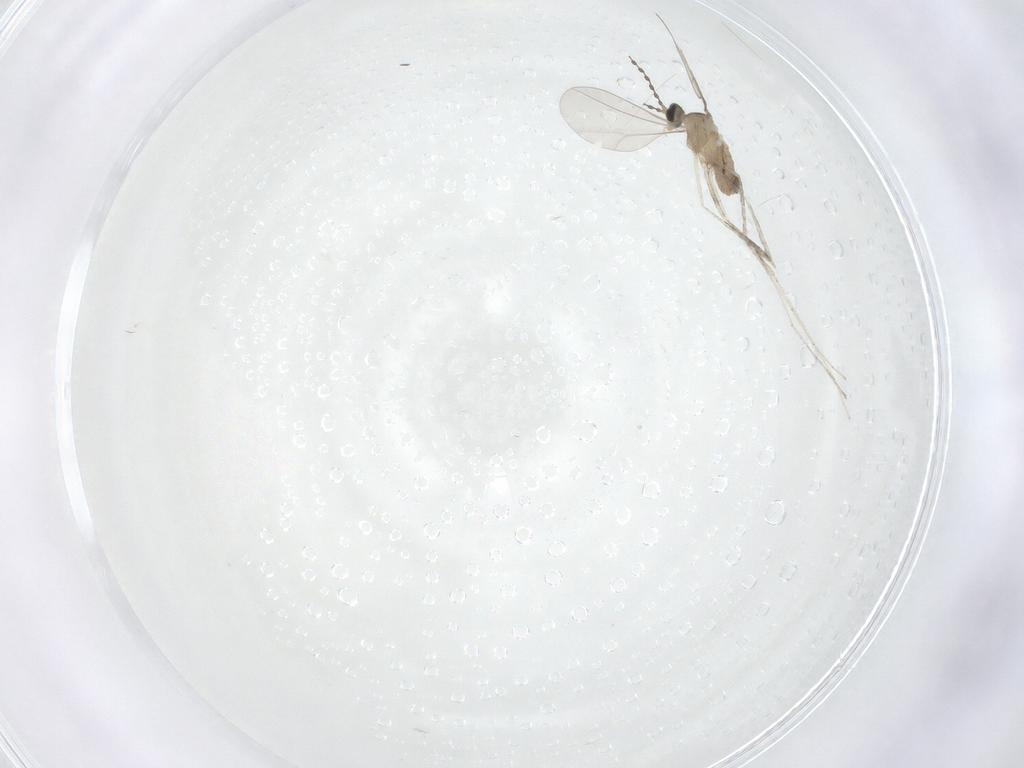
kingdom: Animalia
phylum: Arthropoda
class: Insecta
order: Diptera
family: Cecidomyiidae
